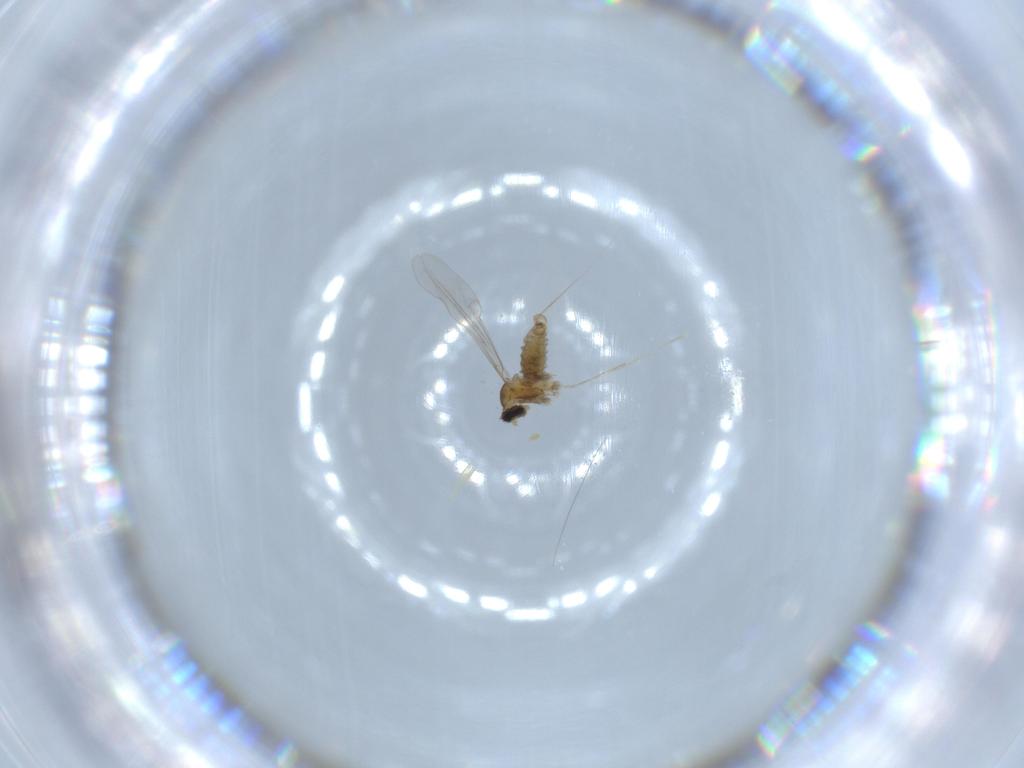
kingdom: Animalia
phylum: Arthropoda
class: Insecta
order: Diptera
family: Cecidomyiidae
